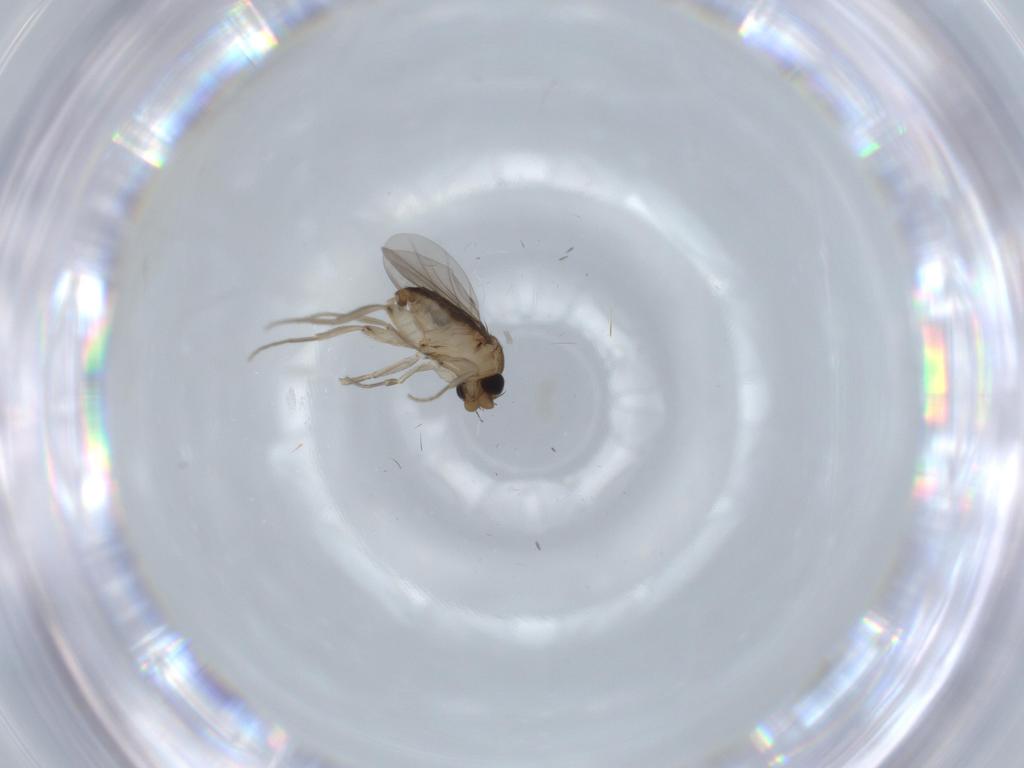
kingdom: Animalia
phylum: Arthropoda
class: Insecta
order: Diptera
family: Phoridae
